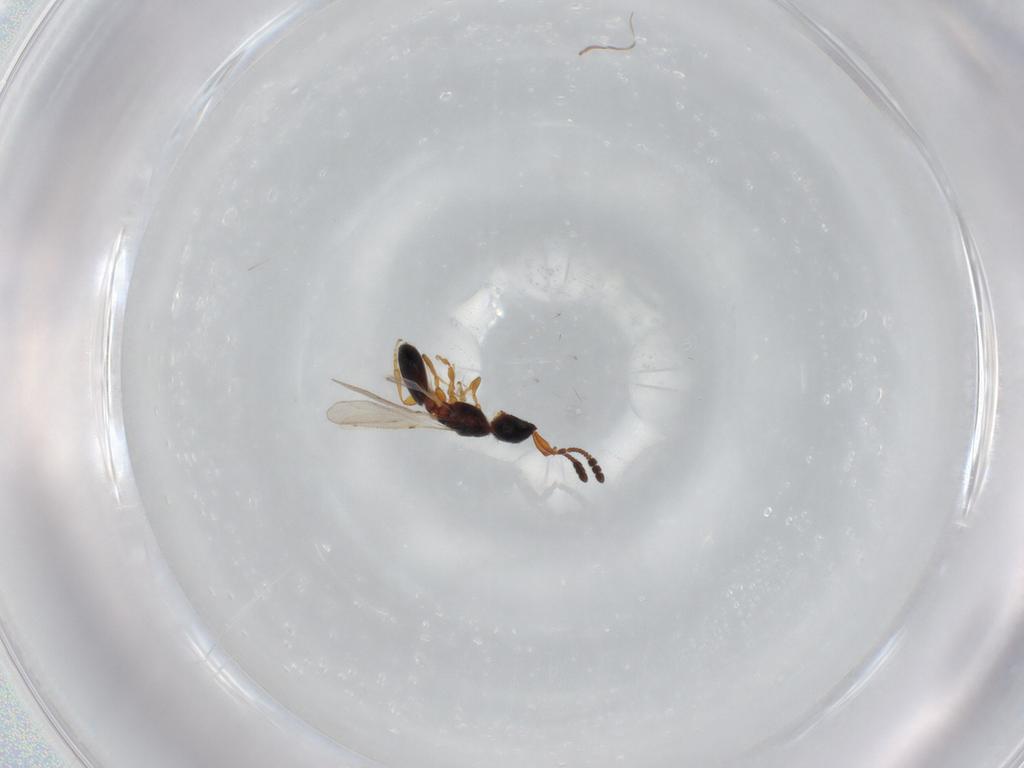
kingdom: Animalia
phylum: Arthropoda
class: Insecta
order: Hymenoptera
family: Diapriidae
